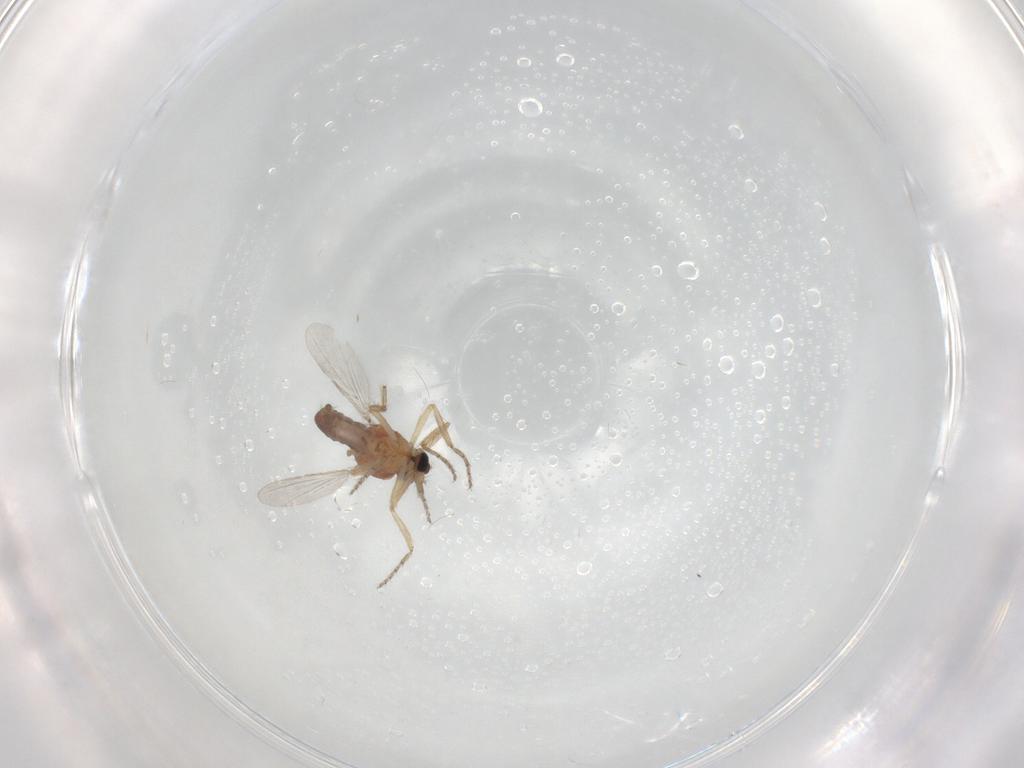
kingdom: Animalia
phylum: Arthropoda
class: Insecta
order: Diptera
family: Ceratopogonidae
